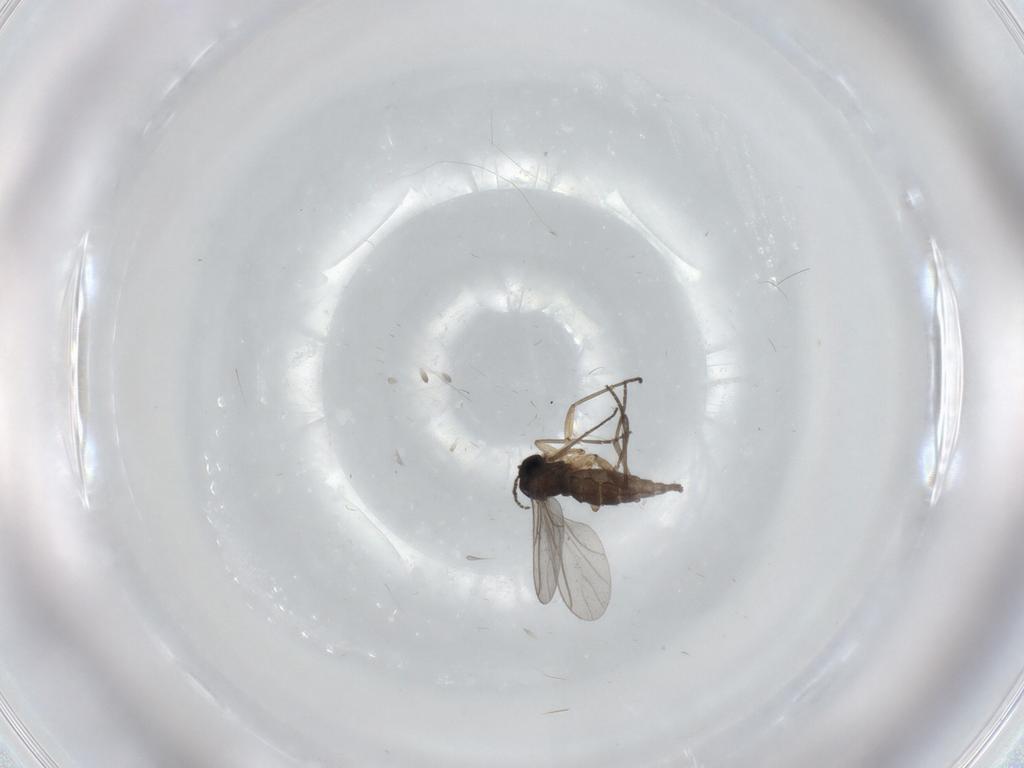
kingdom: Animalia
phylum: Arthropoda
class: Insecta
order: Diptera
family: Sciaridae
